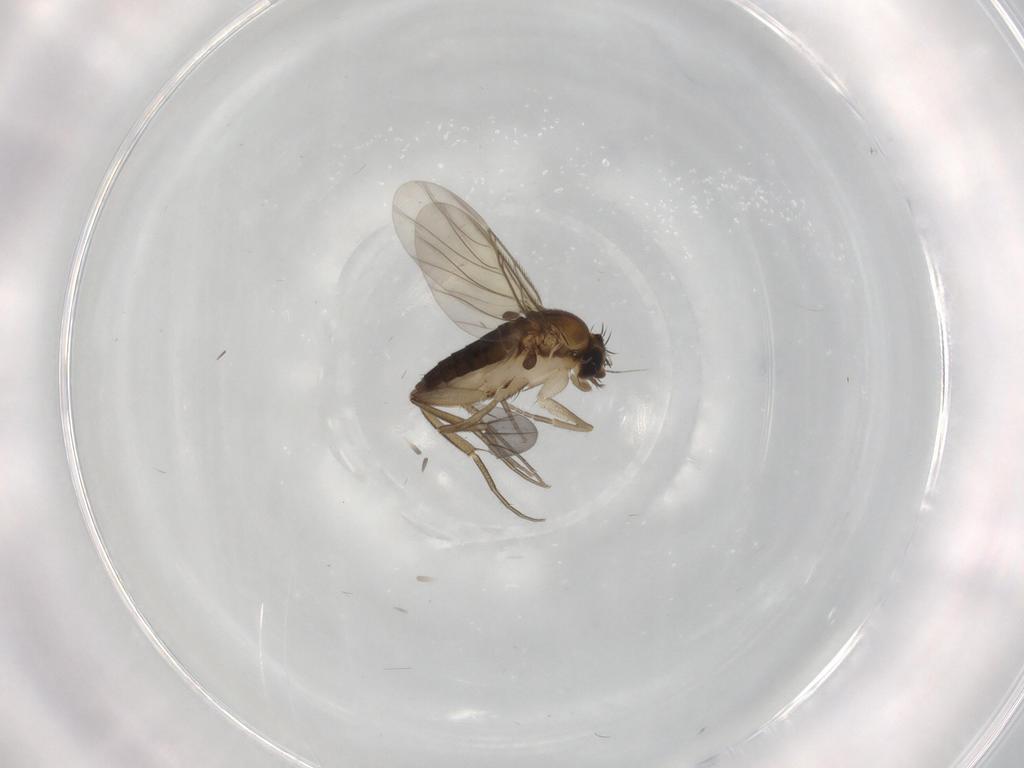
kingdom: Animalia
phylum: Arthropoda
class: Insecta
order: Diptera
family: Phoridae
